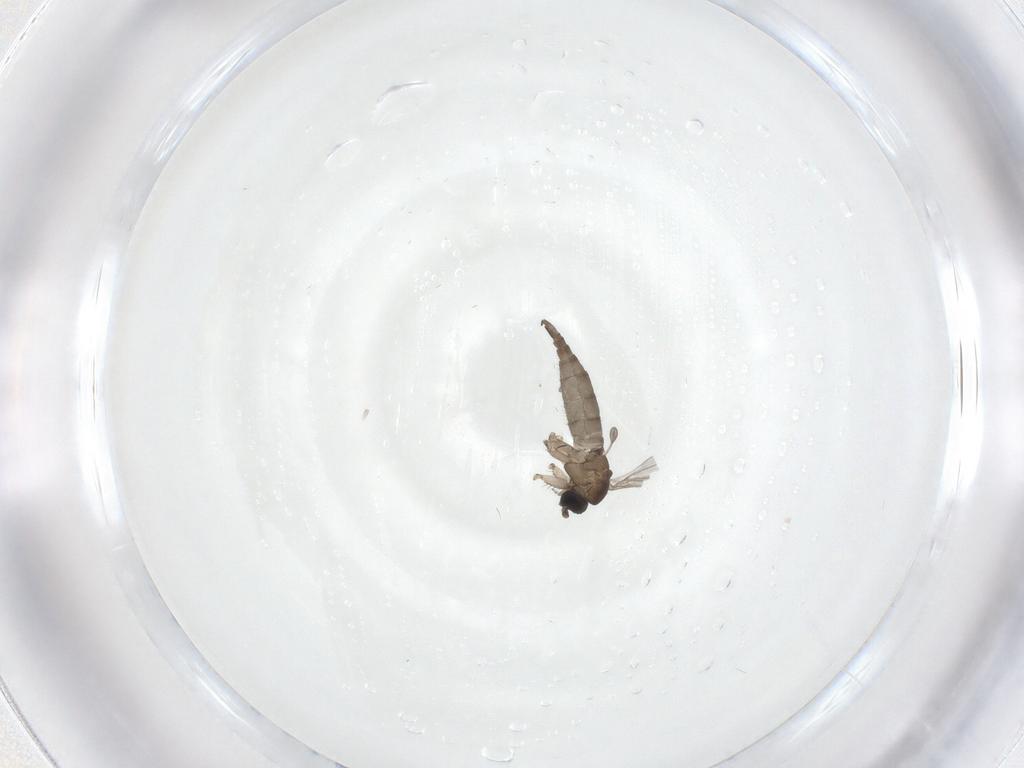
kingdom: Animalia
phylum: Arthropoda
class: Insecta
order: Diptera
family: Sciaridae
